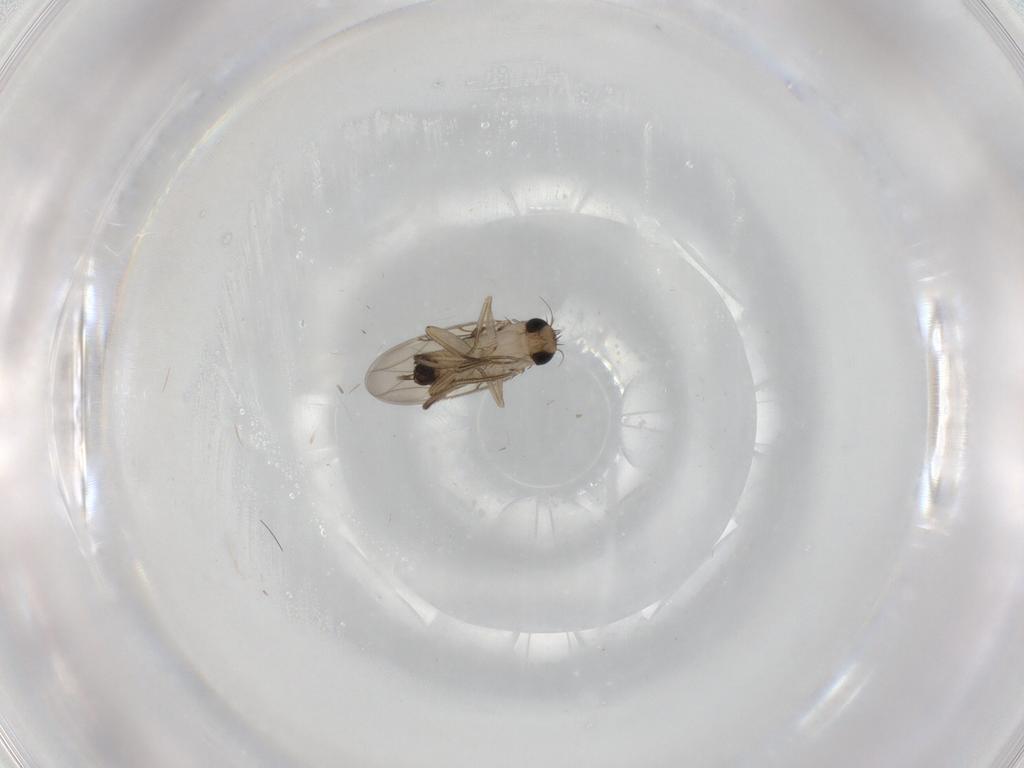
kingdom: Animalia
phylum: Arthropoda
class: Insecta
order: Diptera
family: Phoridae
